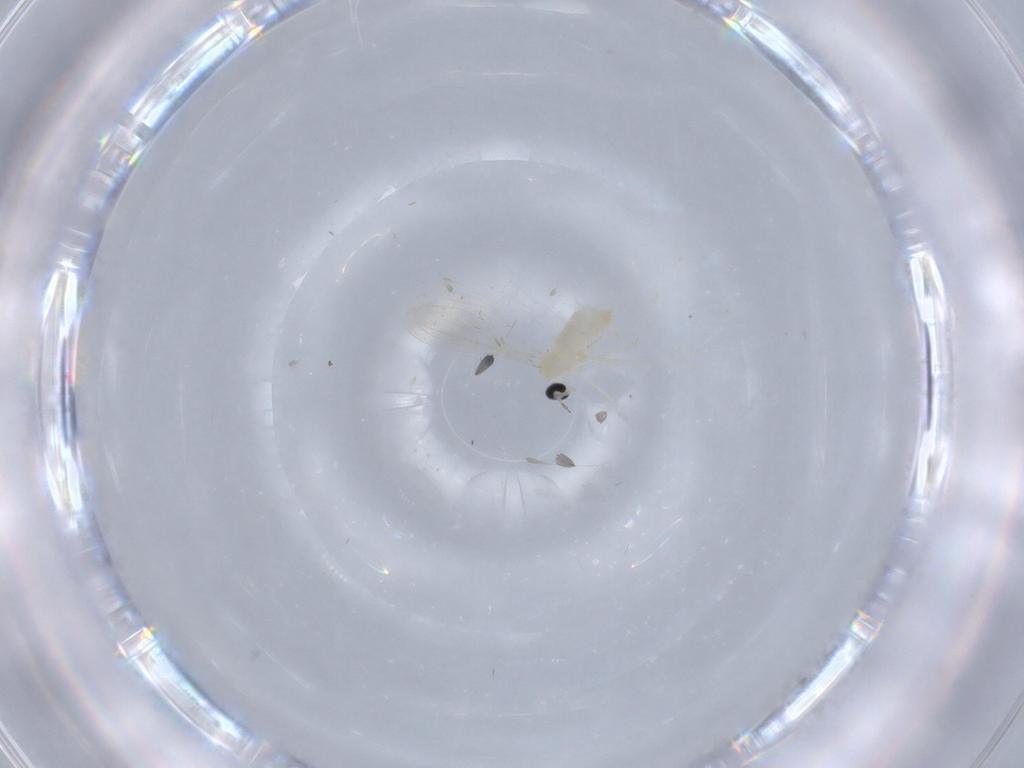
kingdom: Animalia
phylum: Arthropoda
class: Insecta
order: Diptera
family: Cecidomyiidae
